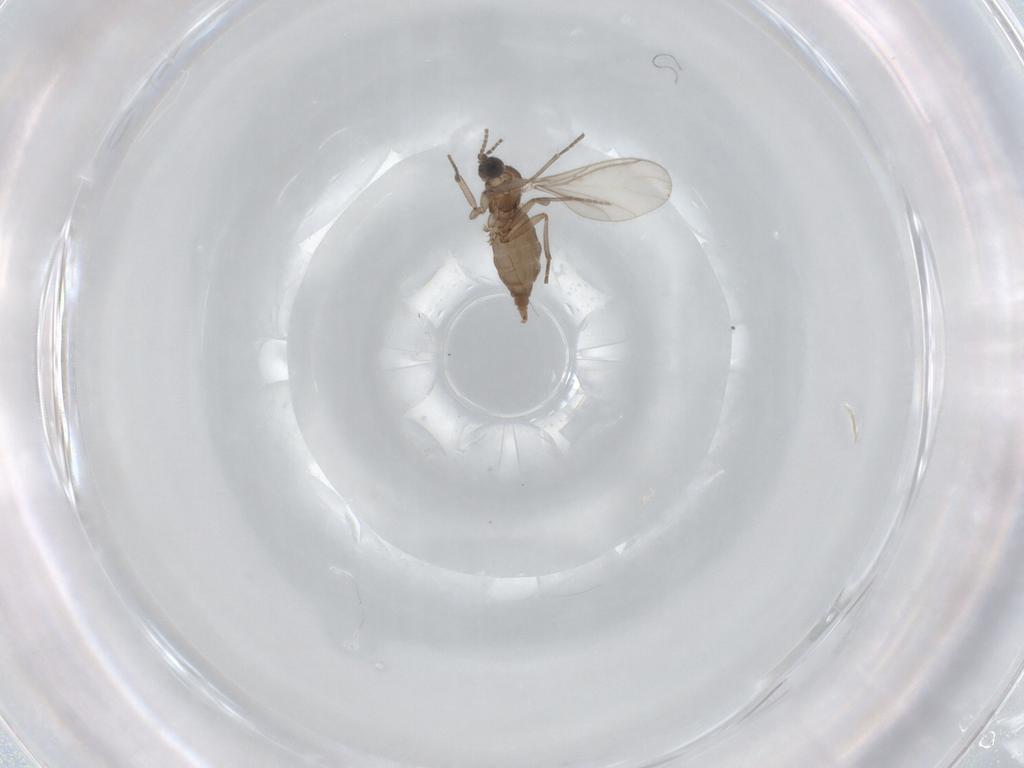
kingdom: Animalia
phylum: Arthropoda
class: Insecta
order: Diptera
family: Sciaridae
